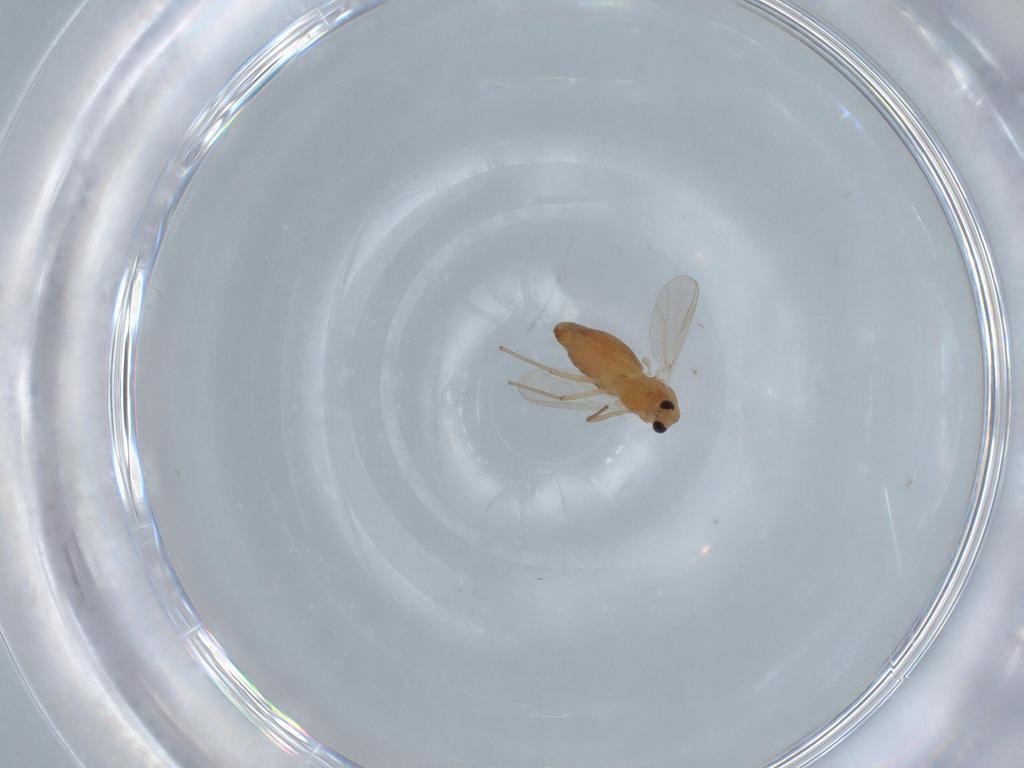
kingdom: Animalia
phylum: Arthropoda
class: Insecta
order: Diptera
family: Chironomidae
